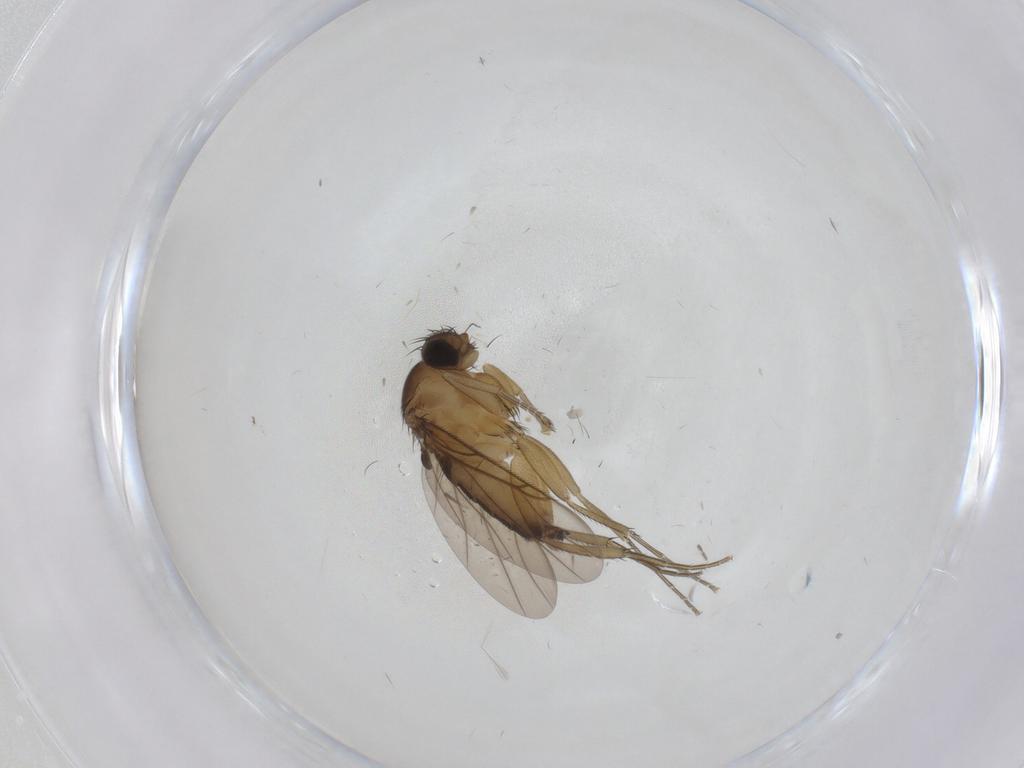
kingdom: Animalia
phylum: Arthropoda
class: Insecta
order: Diptera
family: Phoridae
